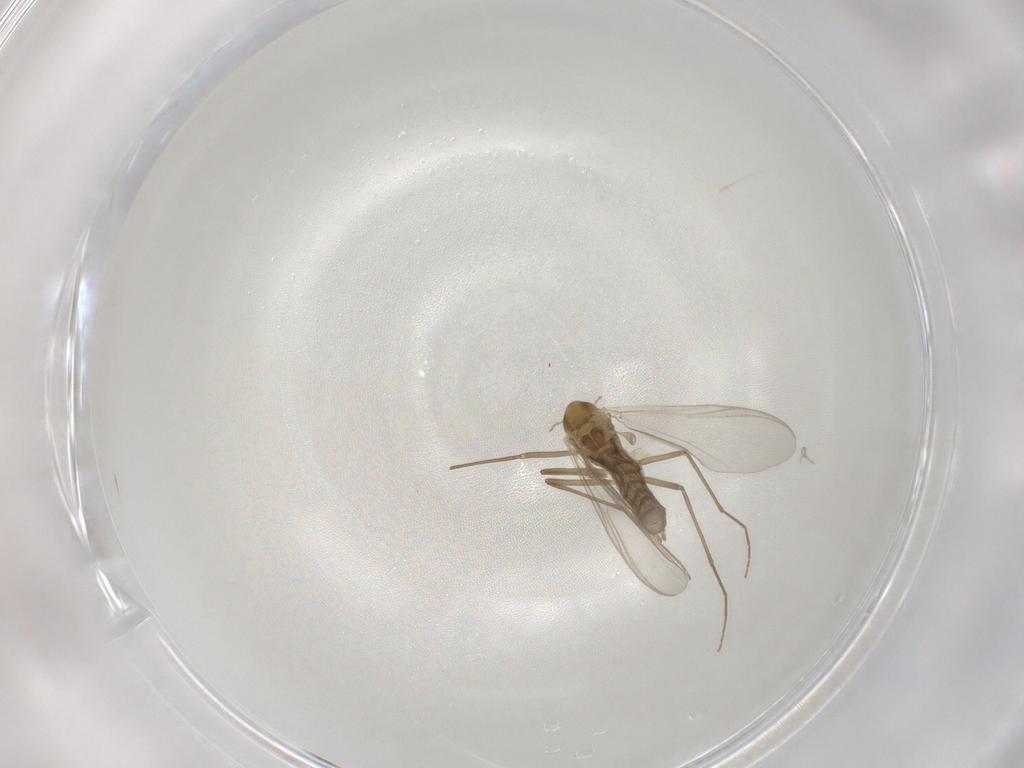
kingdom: Animalia
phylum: Arthropoda
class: Insecta
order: Diptera
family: Chironomidae
